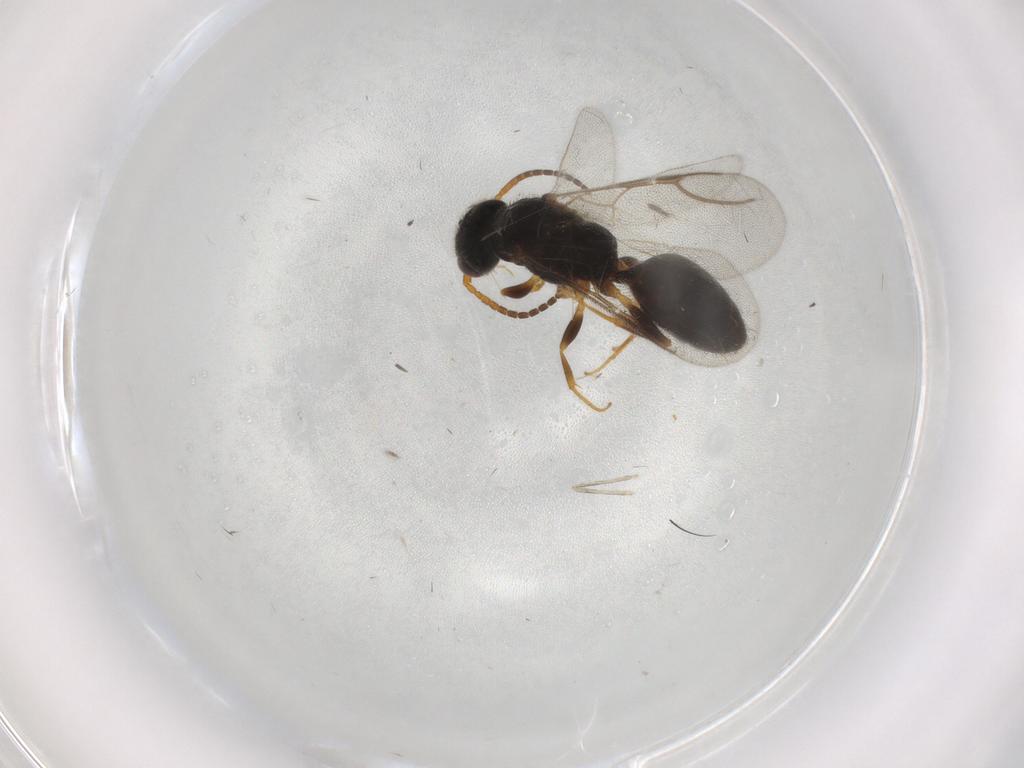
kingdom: Animalia
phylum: Arthropoda
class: Insecta
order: Hymenoptera
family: Bethylidae
